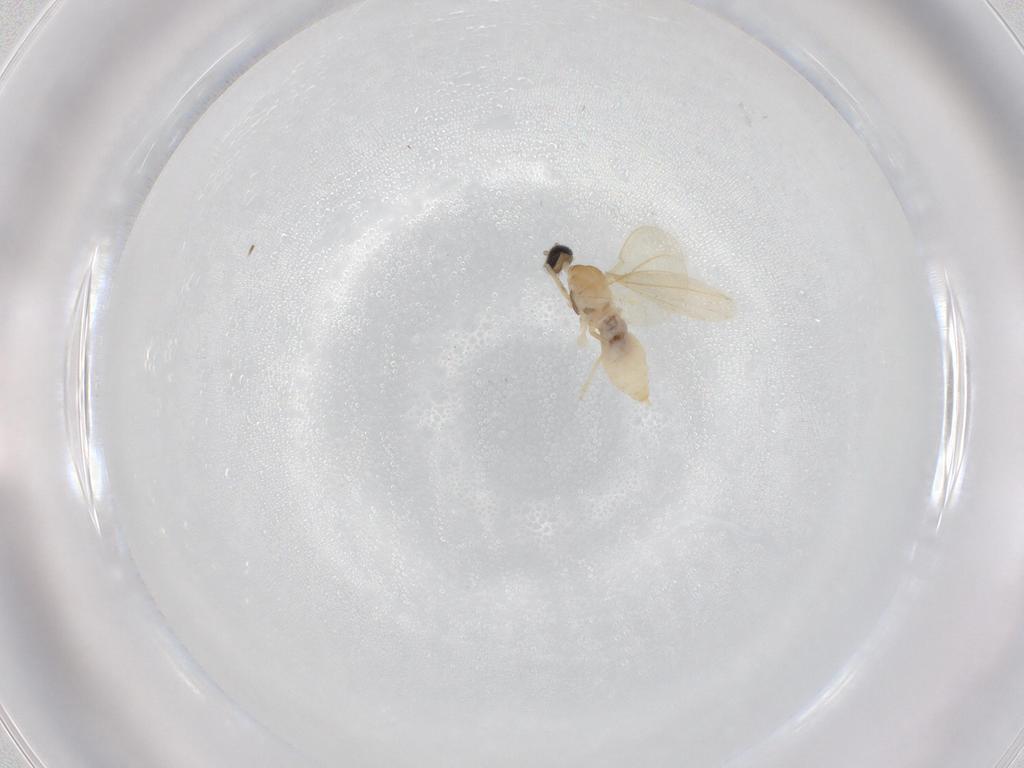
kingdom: Animalia
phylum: Arthropoda
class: Insecta
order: Diptera
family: Cecidomyiidae
